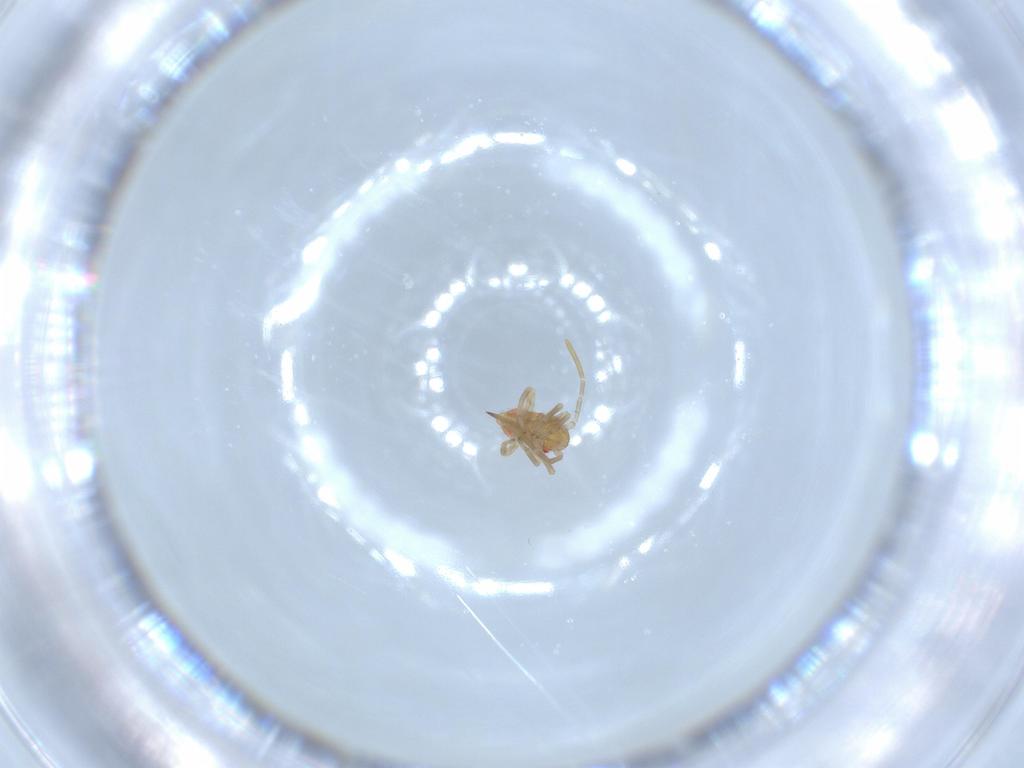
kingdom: Animalia
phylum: Arthropoda
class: Insecta
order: Hemiptera
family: Miridae
